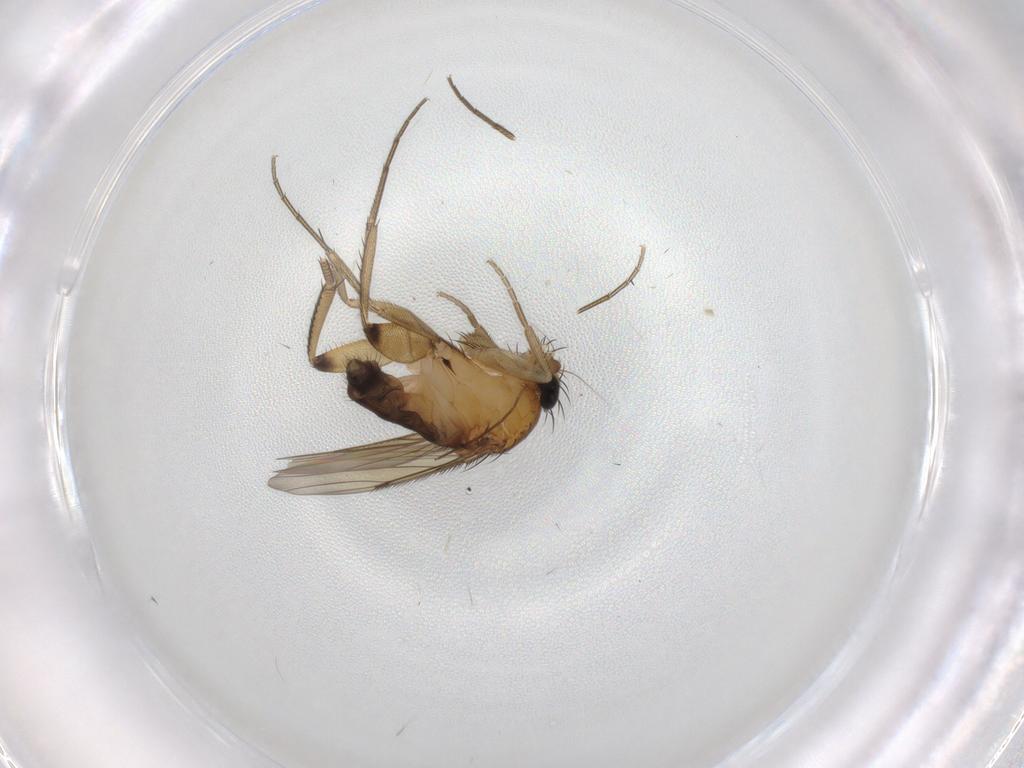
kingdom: Animalia
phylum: Arthropoda
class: Insecta
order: Diptera
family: Phoridae
